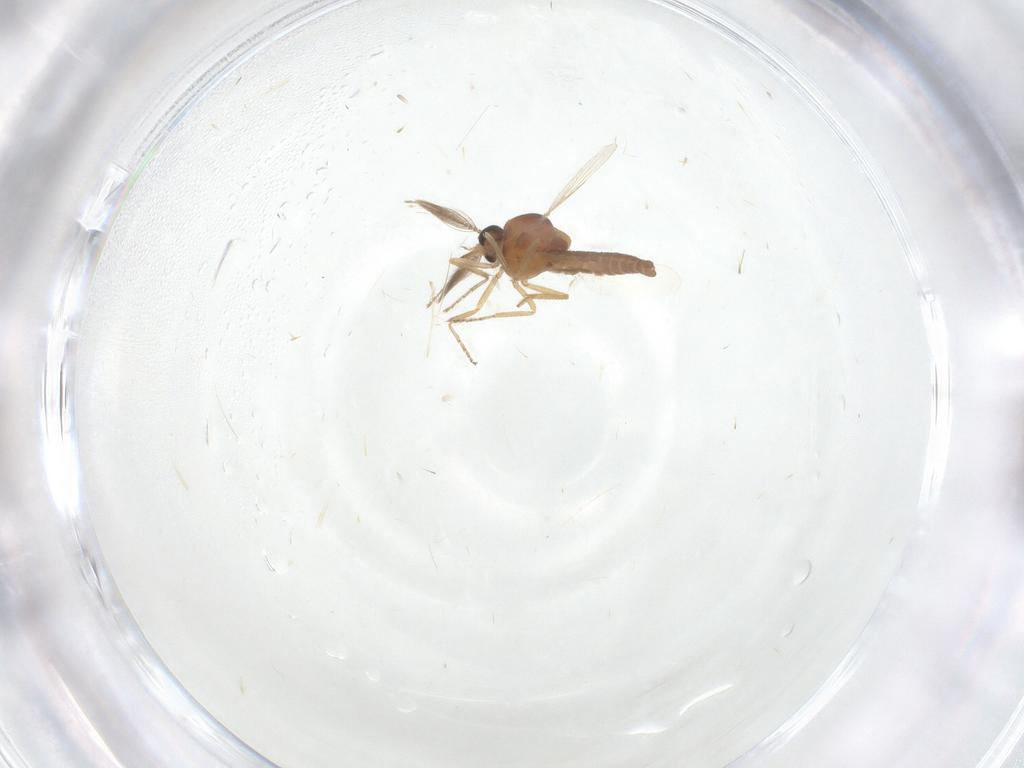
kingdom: Animalia
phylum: Arthropoda
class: Insecta
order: Diptera
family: Ceratopogonidae
